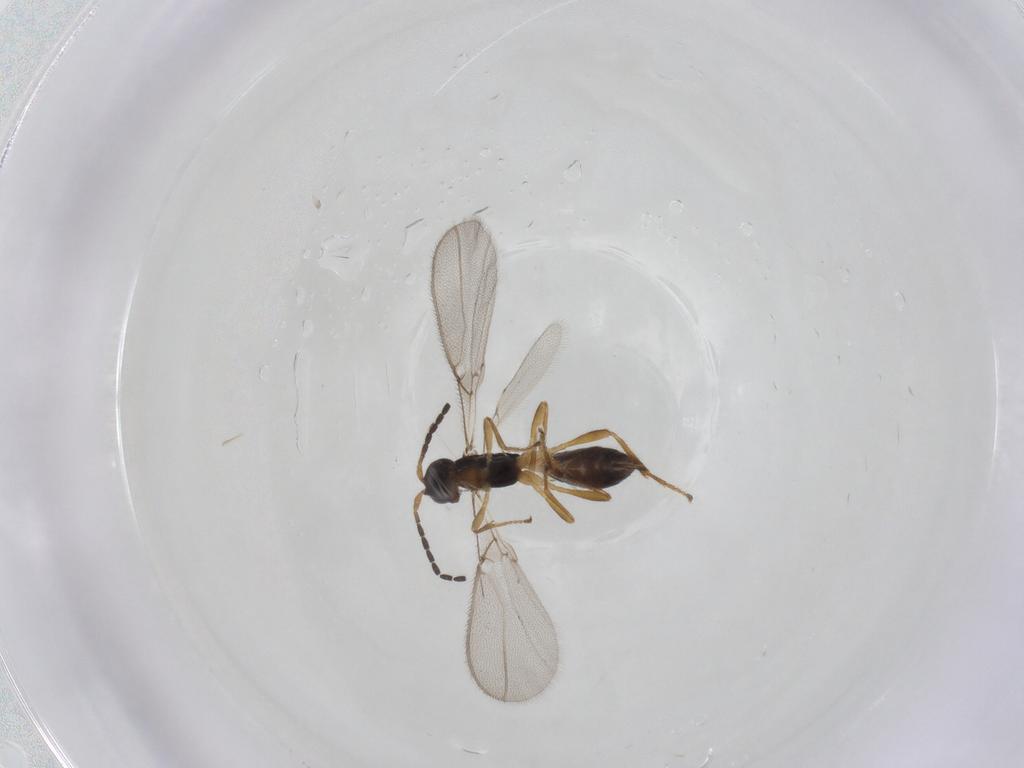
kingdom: Animalia
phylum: Arthropoda
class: Insecta
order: Hymenoptera
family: Braconidae
